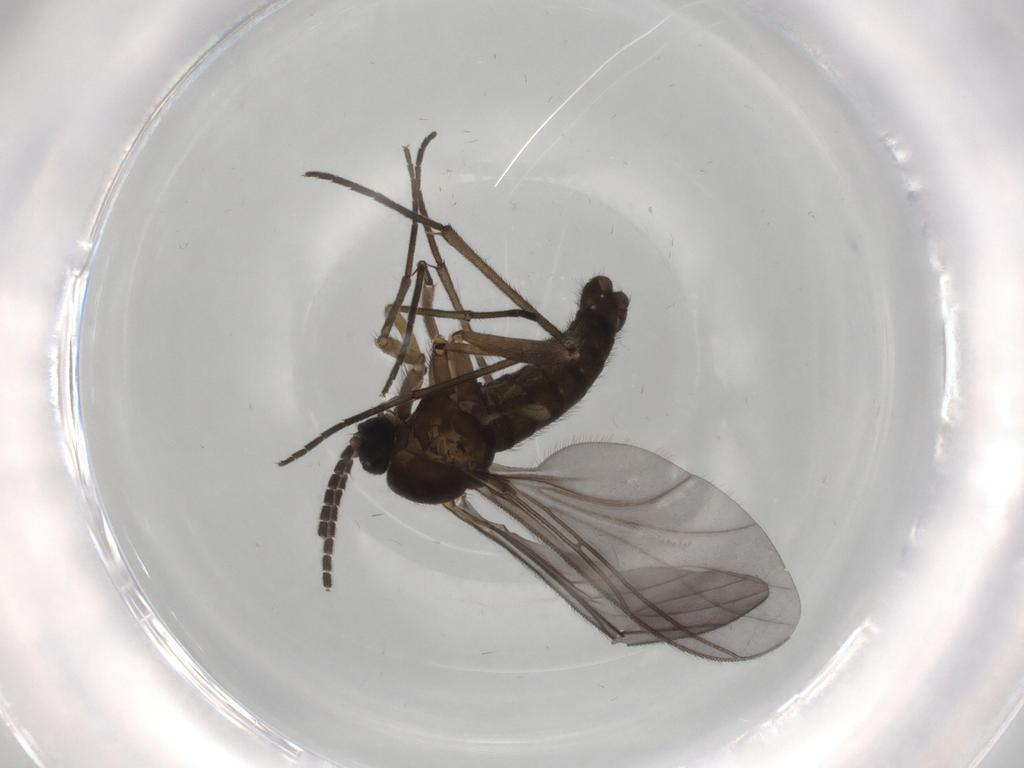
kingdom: Animalia
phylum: Arthropoda
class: Insecta
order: Diptera
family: Sciaridae
